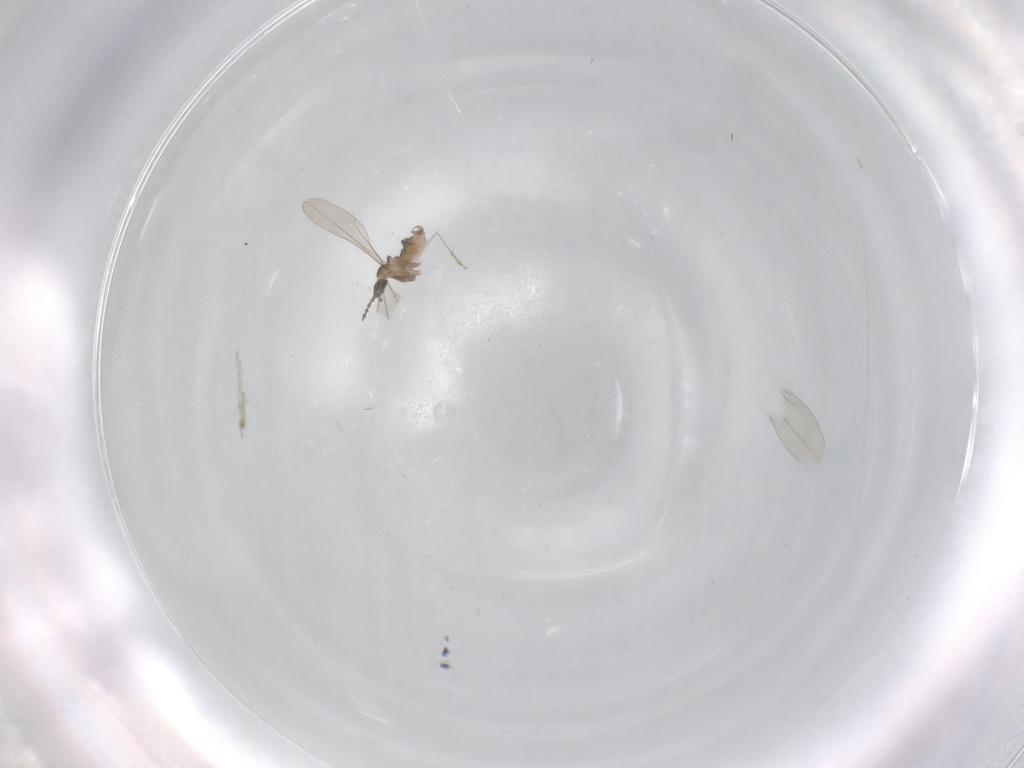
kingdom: Animalia
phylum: Arthropoda
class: Insecta
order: Diptera
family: Cecidomyiidae
